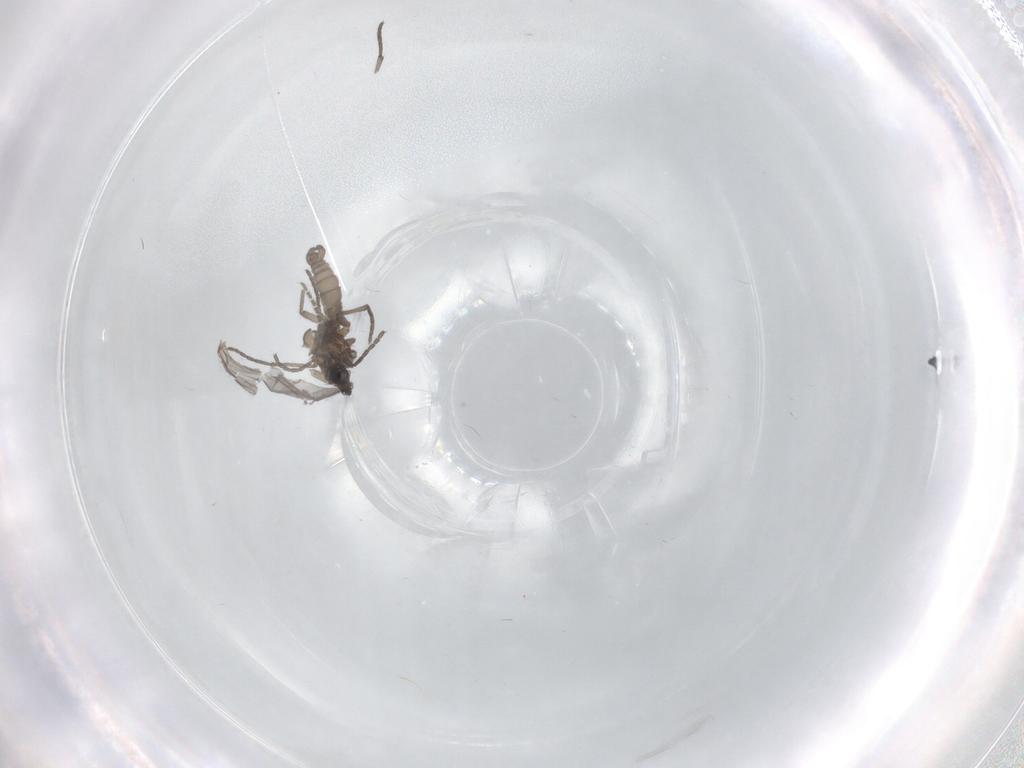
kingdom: Animalia
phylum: Arthropoda
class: Insecta
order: Diptera
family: Sciaridae
